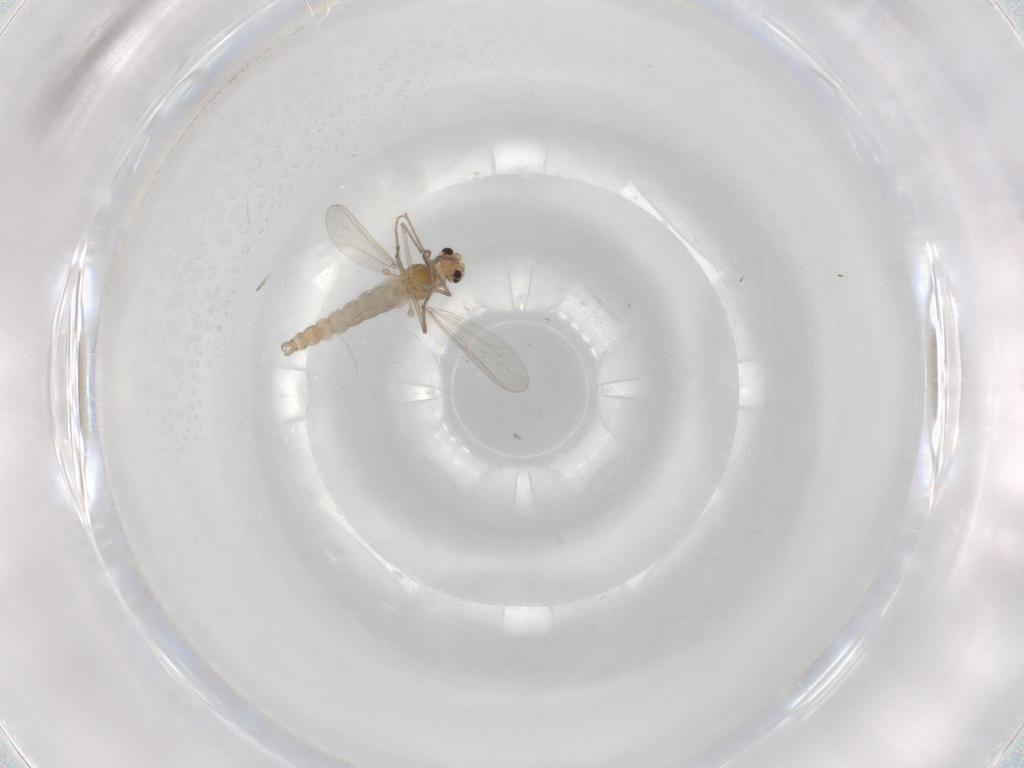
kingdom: Animalia
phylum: Arthropoda
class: Insecta
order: Diptera
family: Chironomidae
